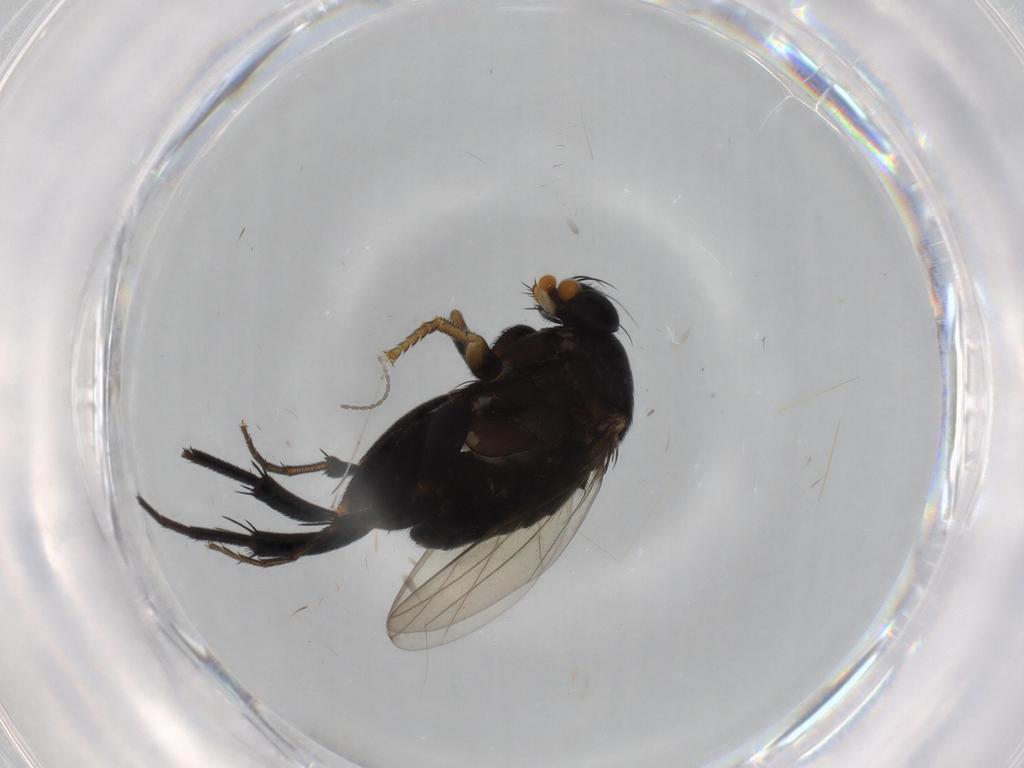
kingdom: Animalia
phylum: Arthropoda
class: Insecta
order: Diptera
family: Phoridae
